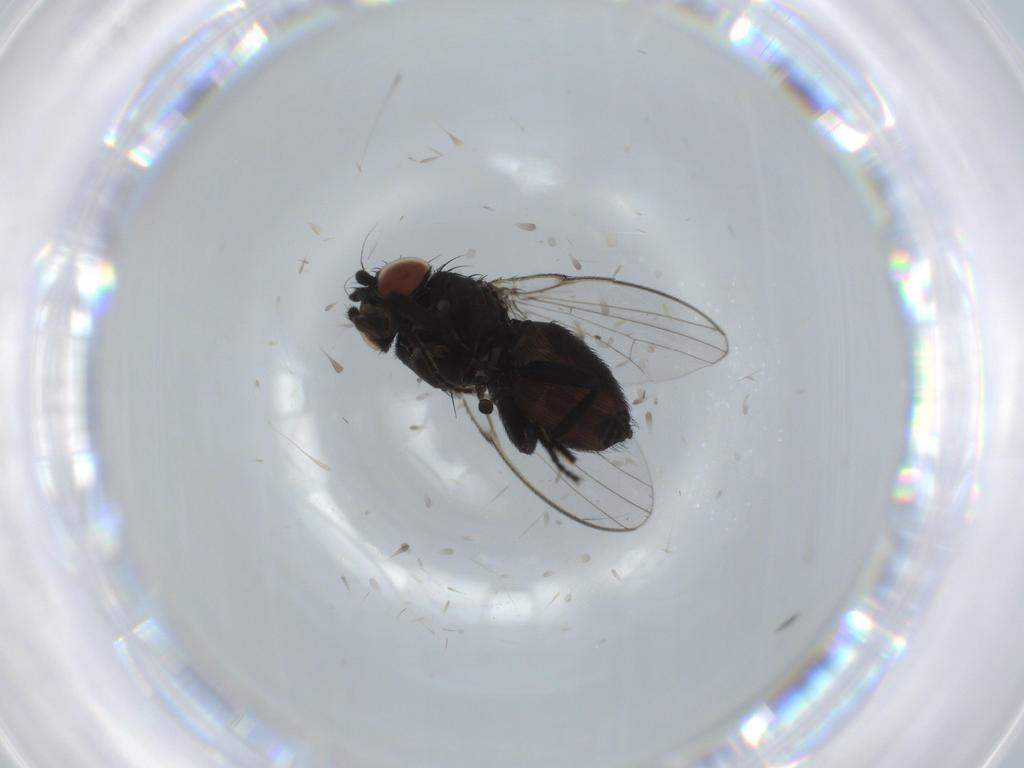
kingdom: Animalia
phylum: Arthropoda
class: Insecta
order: Diptera
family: Milichiidae
